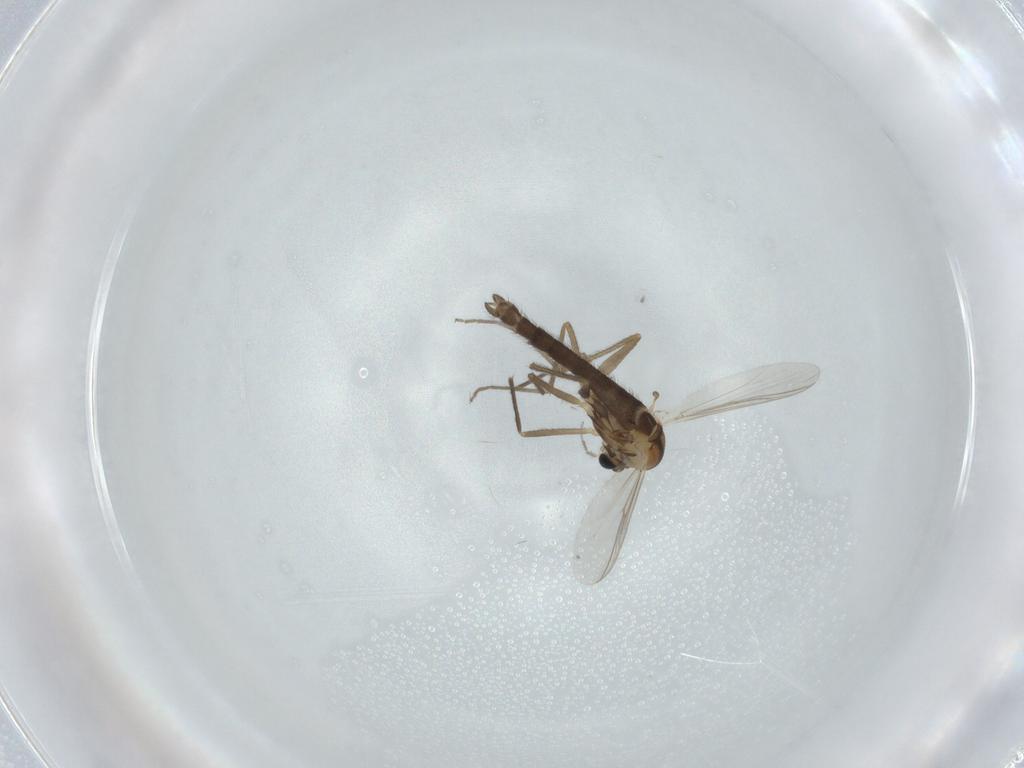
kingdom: Animalia
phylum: Arthropoda
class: Insecta
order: Diptera
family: Chironomidae
